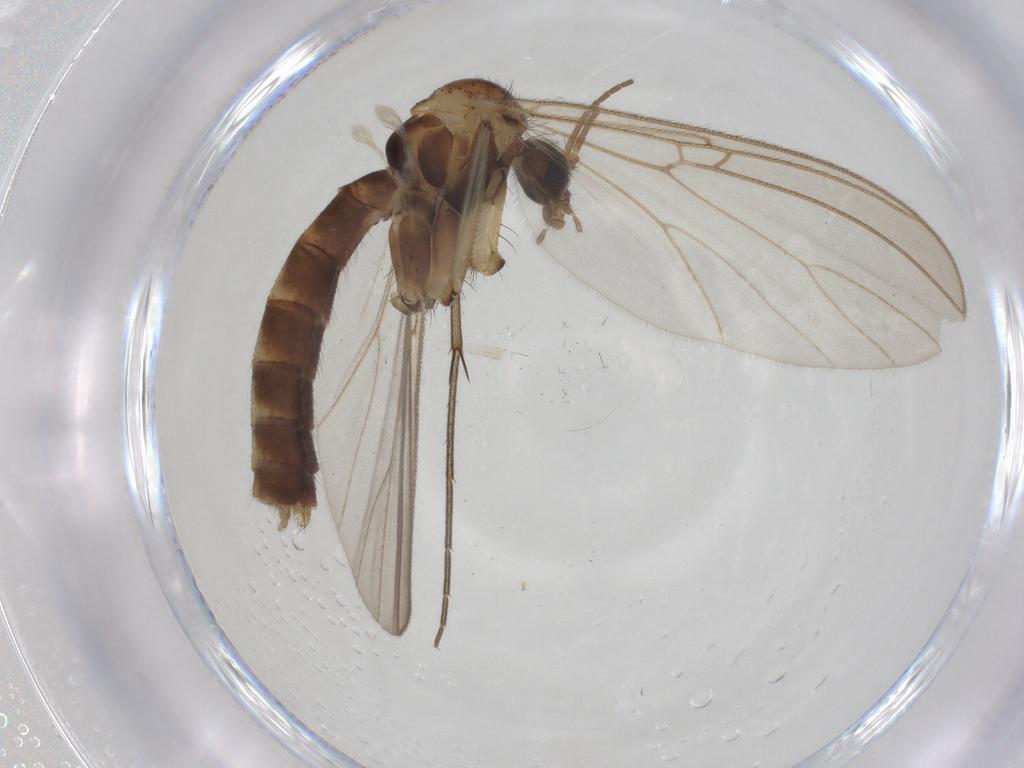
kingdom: Animalia
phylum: Arthropoda
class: Insecta
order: Diptera
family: Mycetophilidae
